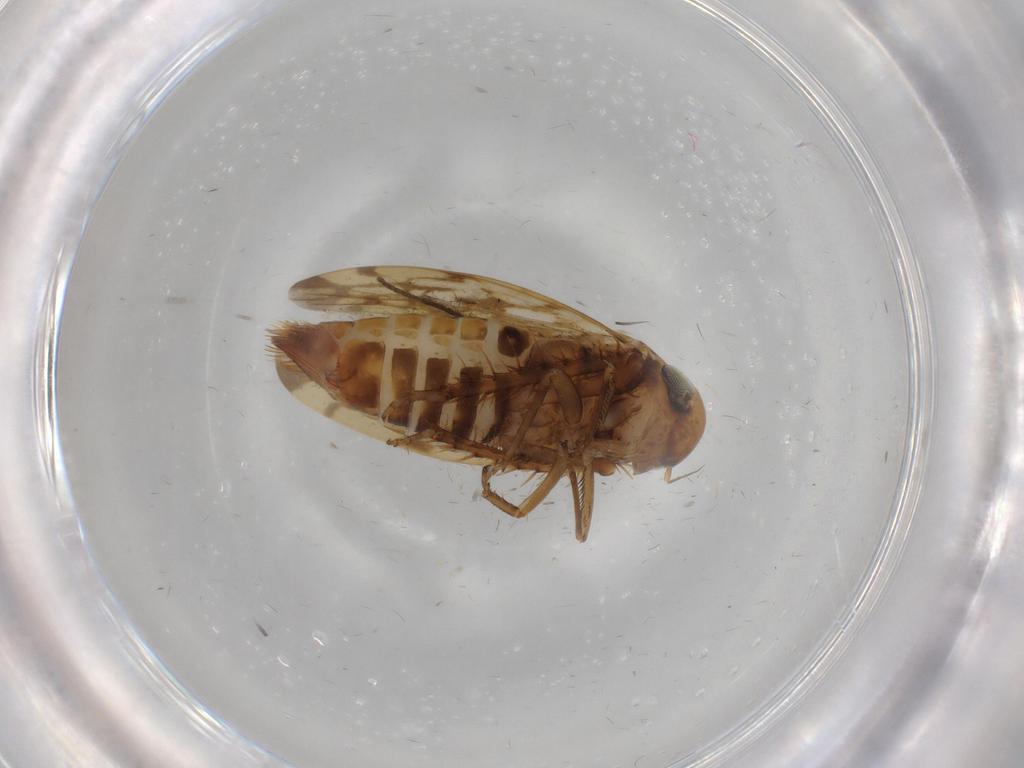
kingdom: Animalia
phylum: Arthropoda
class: Insecta
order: Hemiptera
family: Cicadellidae
